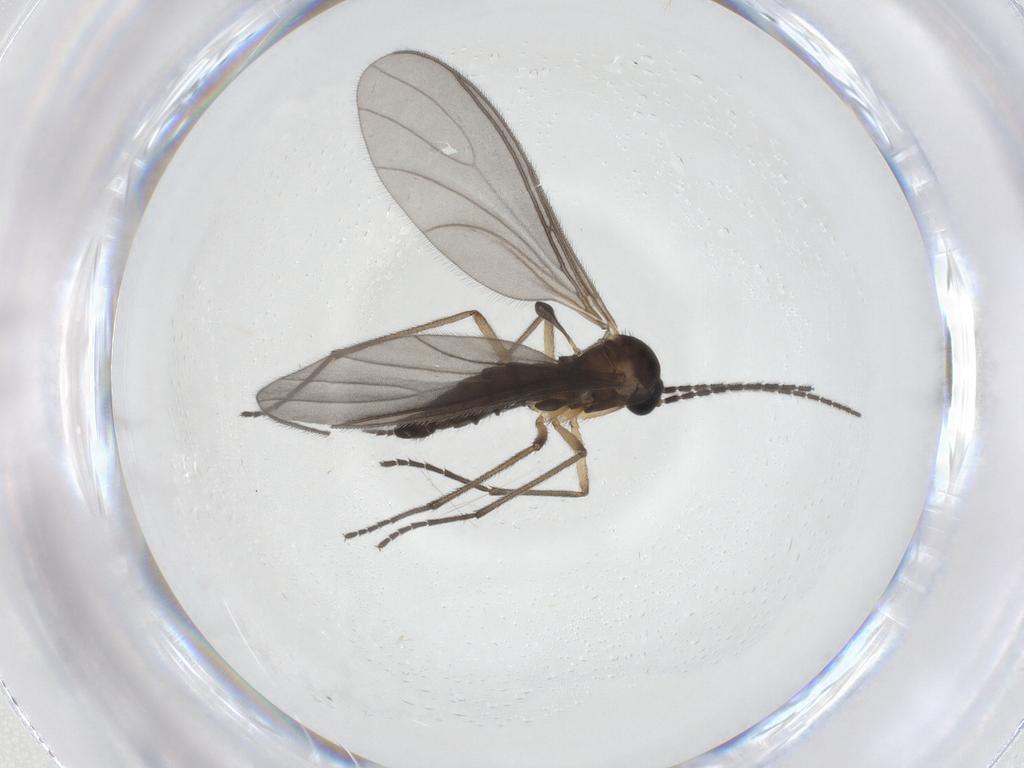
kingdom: Animalia
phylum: Arthropoda
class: Insecta
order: Diptera
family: Sciaridae
